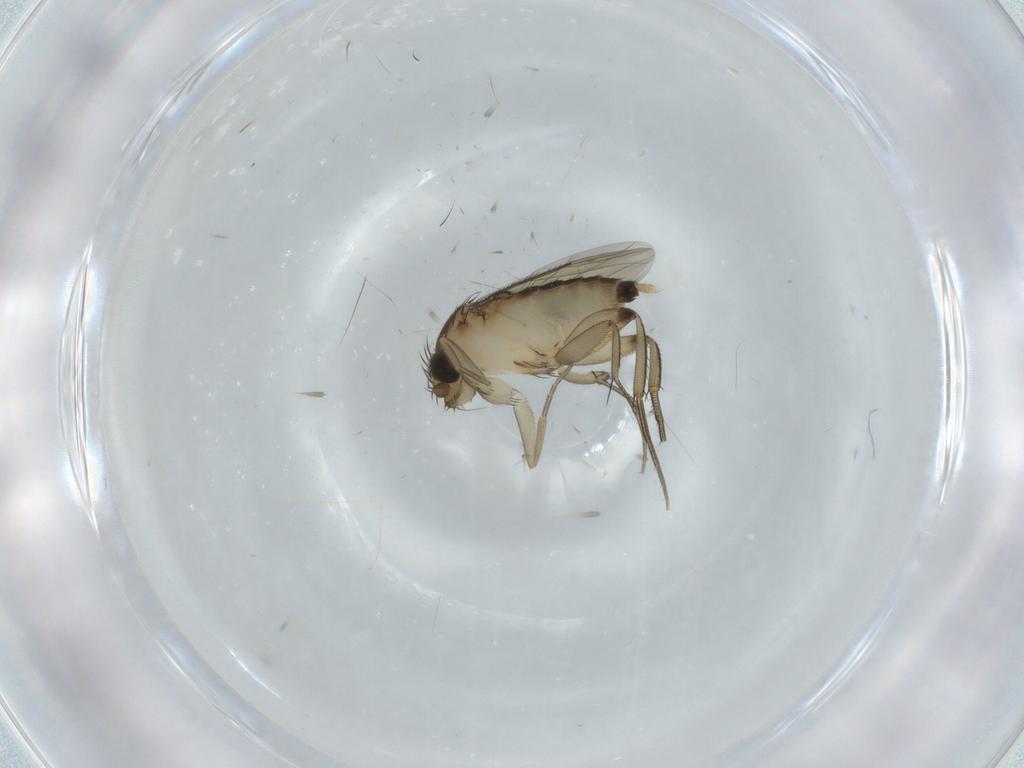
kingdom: Animalia
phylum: Arthropoda
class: Insecta
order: Diptera
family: Phoridae
